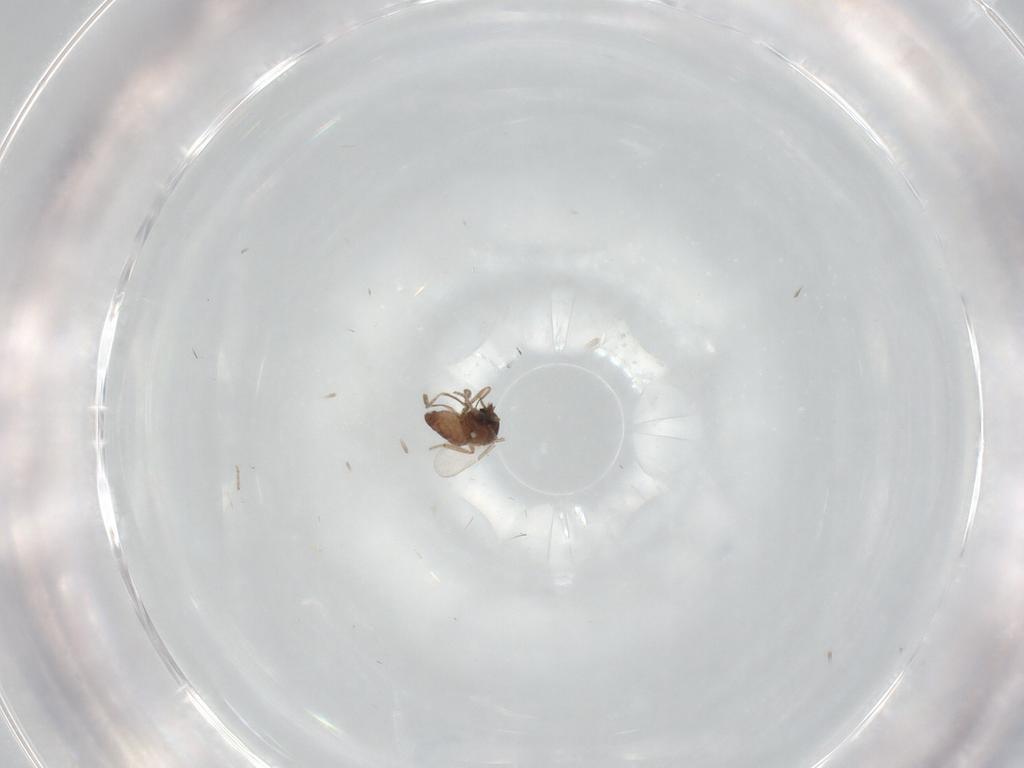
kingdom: Animalia
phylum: Arthropoda
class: Insecta
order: Diptera
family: Ceratopogonidae
